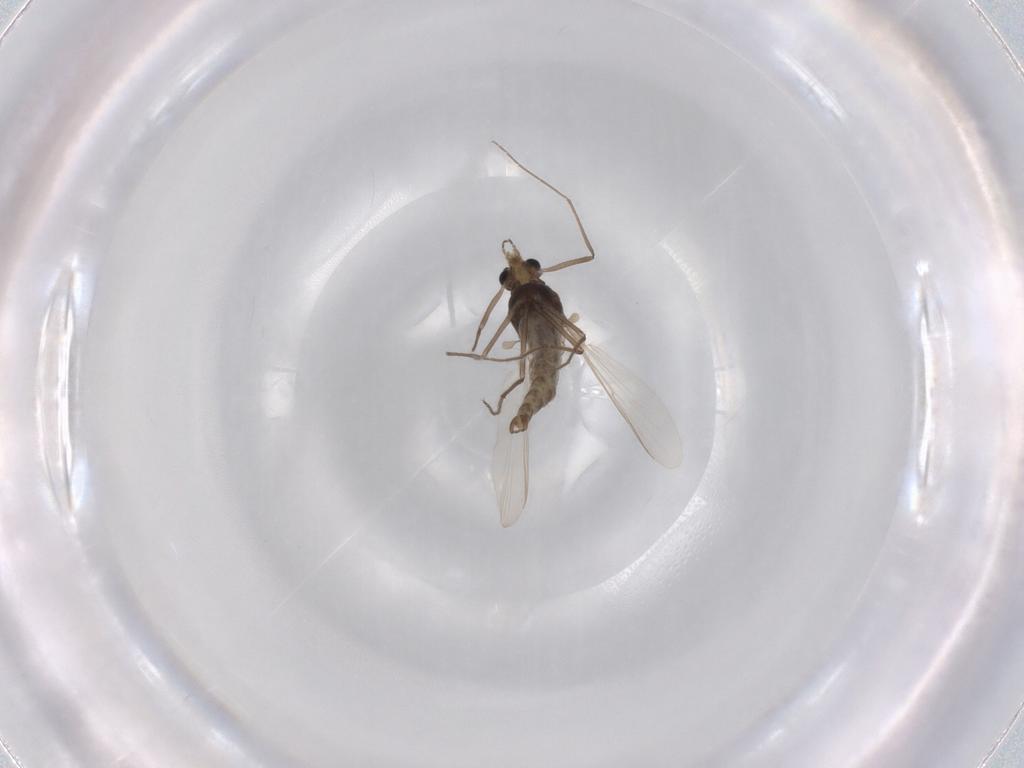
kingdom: Animalia
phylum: Arthropoda
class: Insecta
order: Diptera
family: Chironomidae
